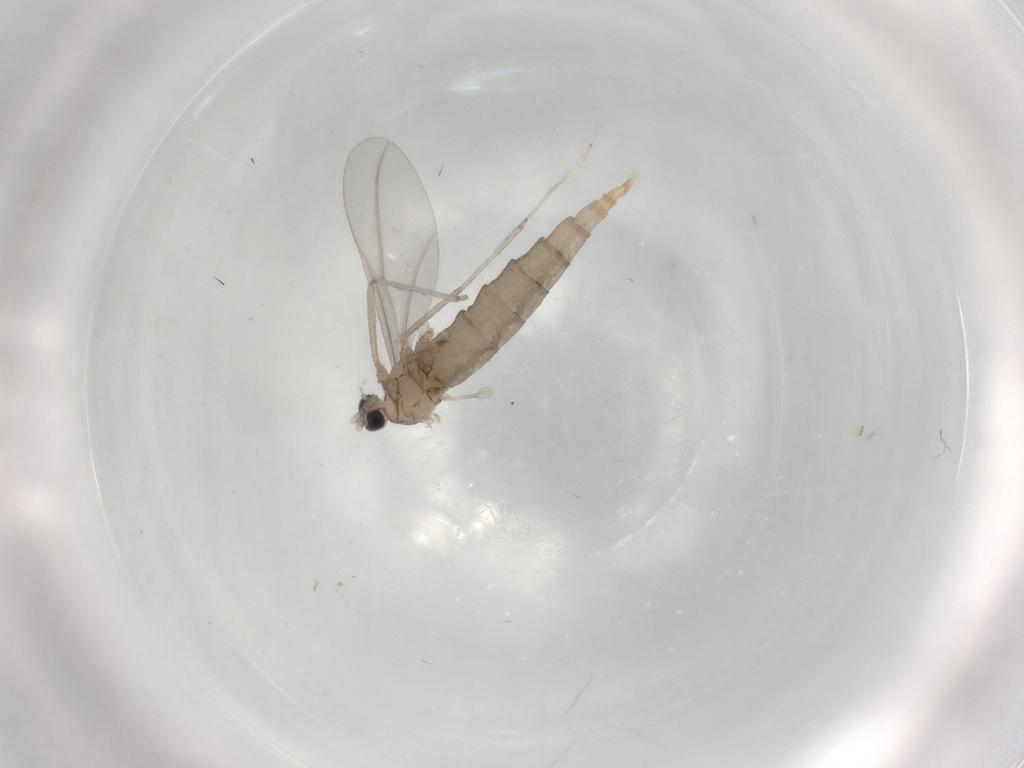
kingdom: Animalia
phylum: Arthropoda
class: Insecta
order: Diptera
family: Cecidomyiidae
